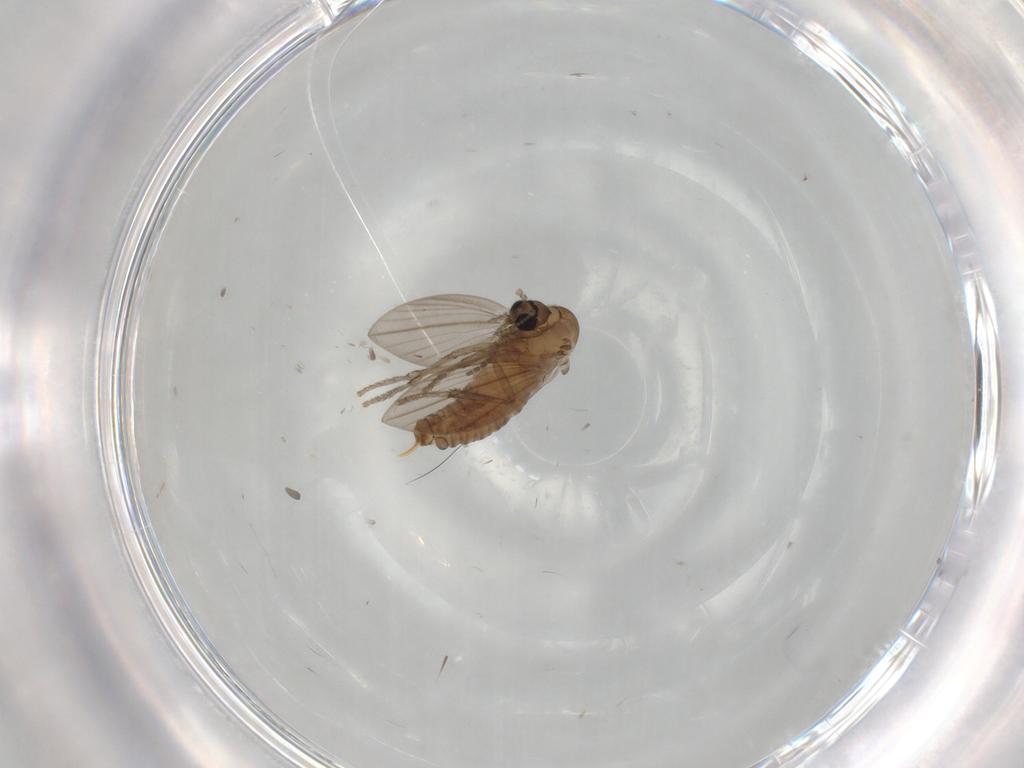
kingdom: Animalia
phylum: Arthropoda
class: Insecta
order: Diptera
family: Psychodidae
